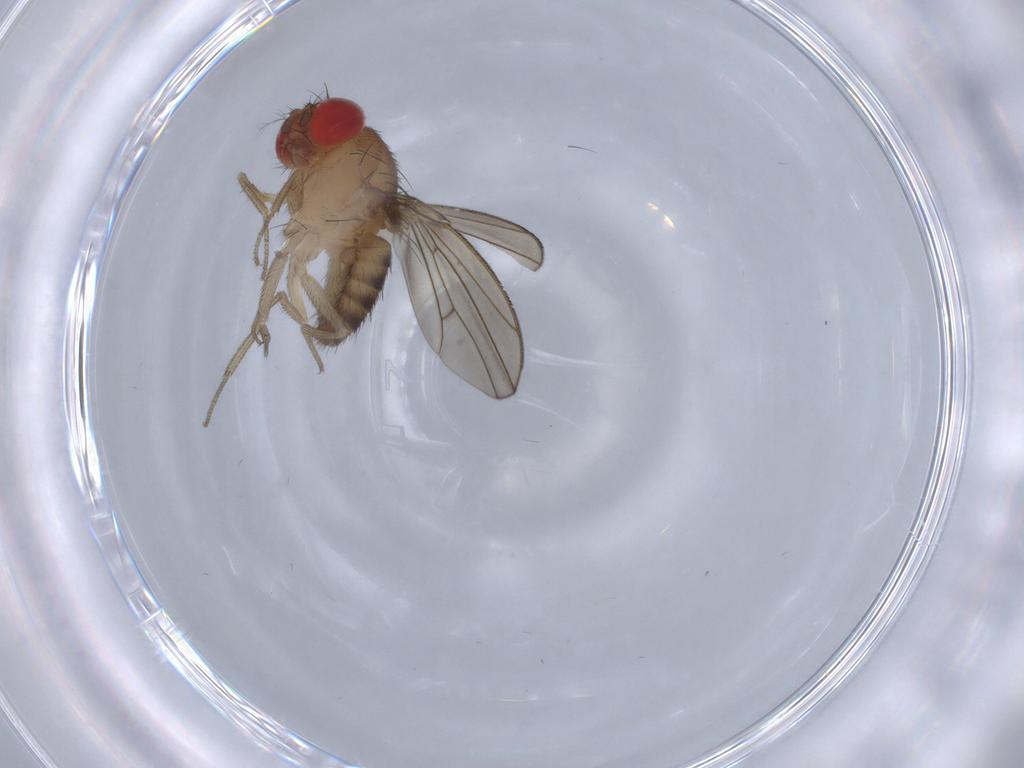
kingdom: Animalia
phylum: Arthropoda
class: Insecta
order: Diptera
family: Drosophilidae
